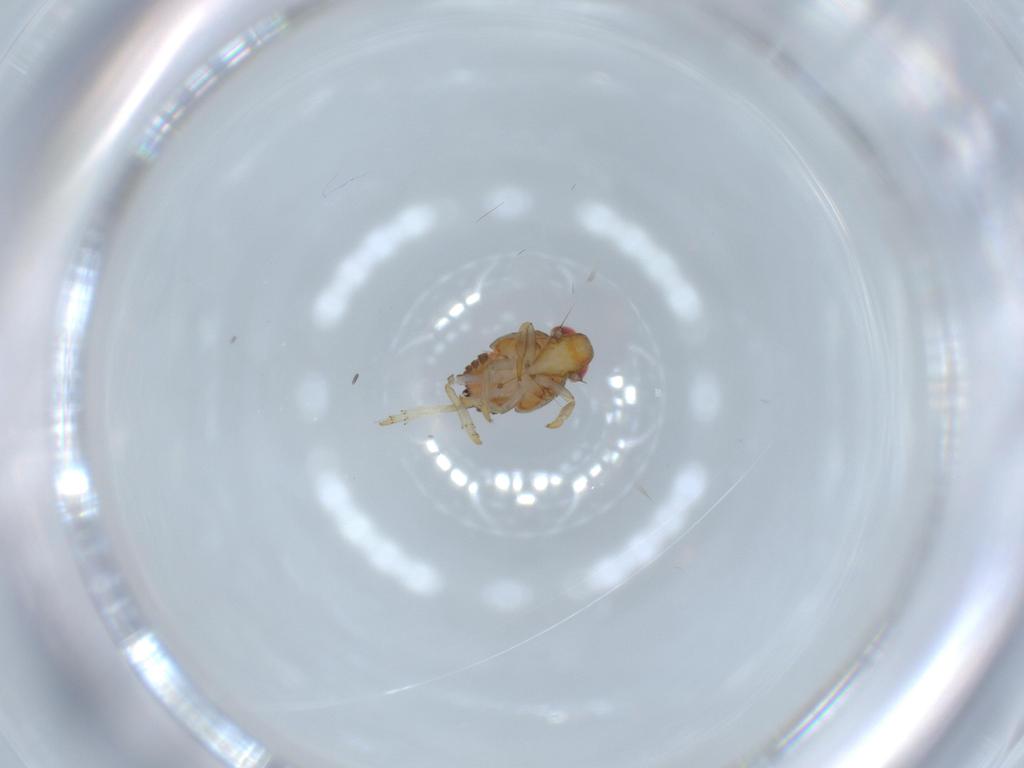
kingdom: Animalia
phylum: Arthropoda
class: Insecta
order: Hemiptera
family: Issidae
